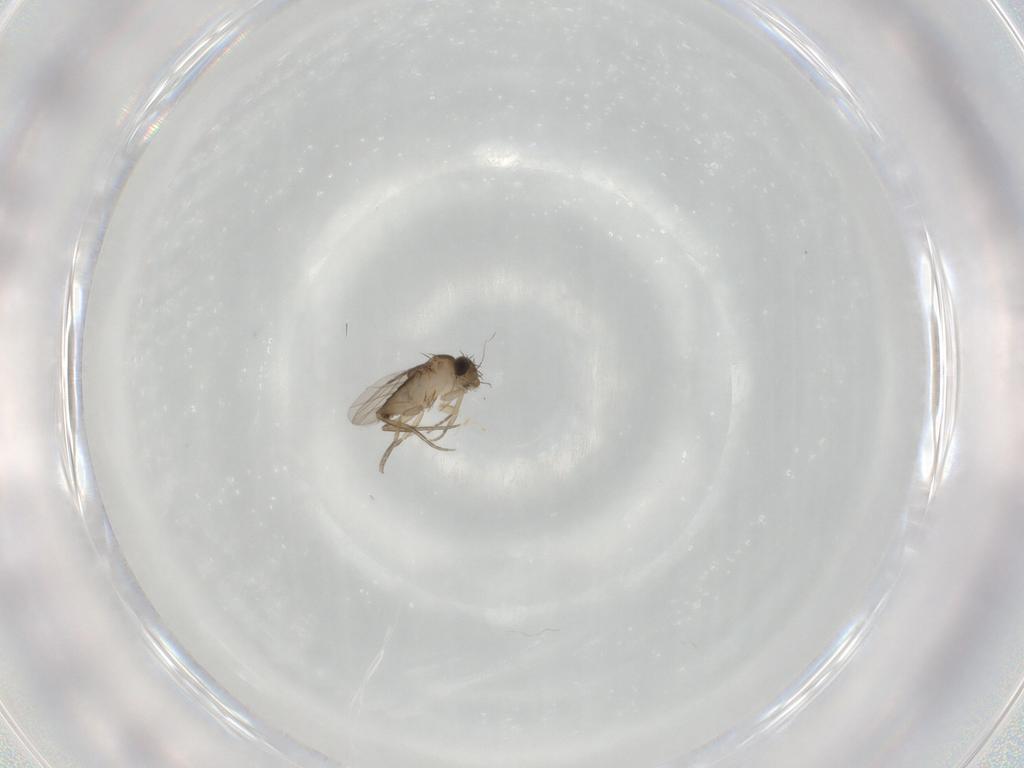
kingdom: Animalia
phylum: Arthropoda
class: Insecta
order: Diptera
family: Phoridae
